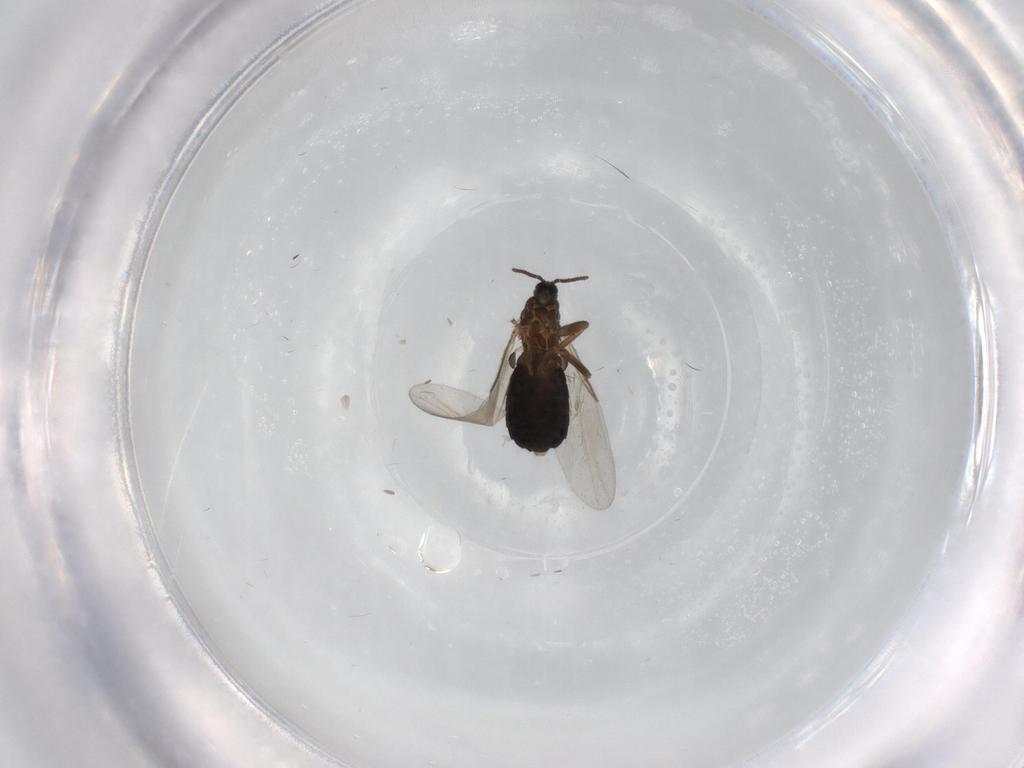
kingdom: Animalia
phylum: Arthropoda
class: Insecta
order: Diptera
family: Scatopsidae
